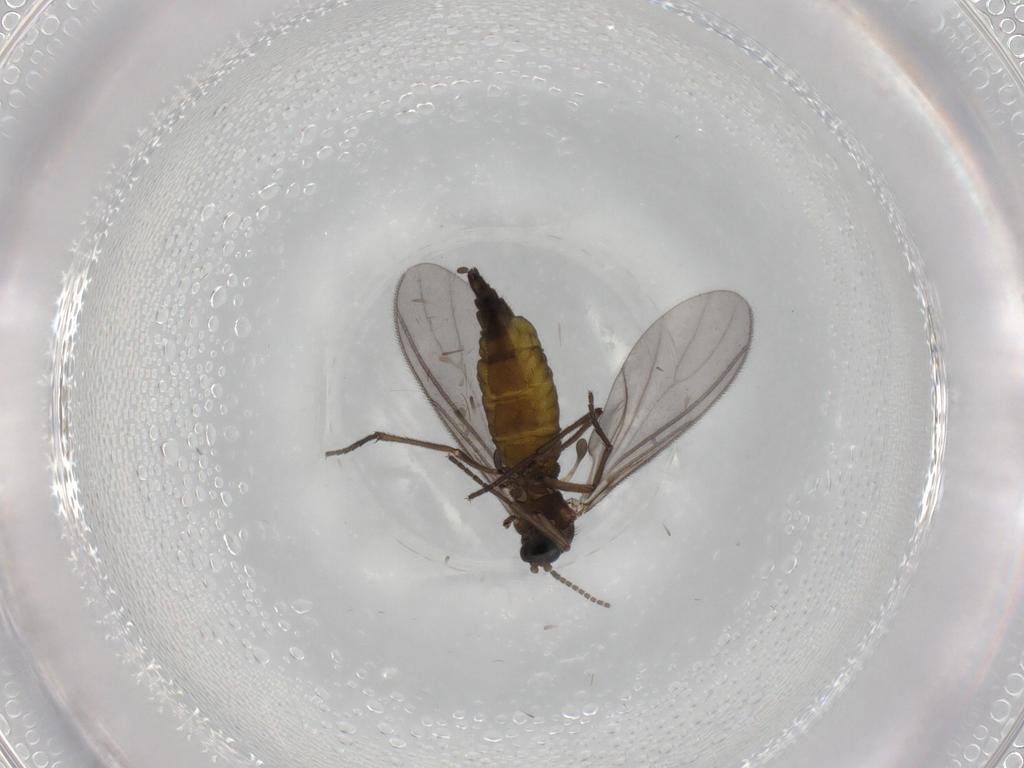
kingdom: Animalia
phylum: Arthropoda
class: Insecta
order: Diptera
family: Sciaridae
